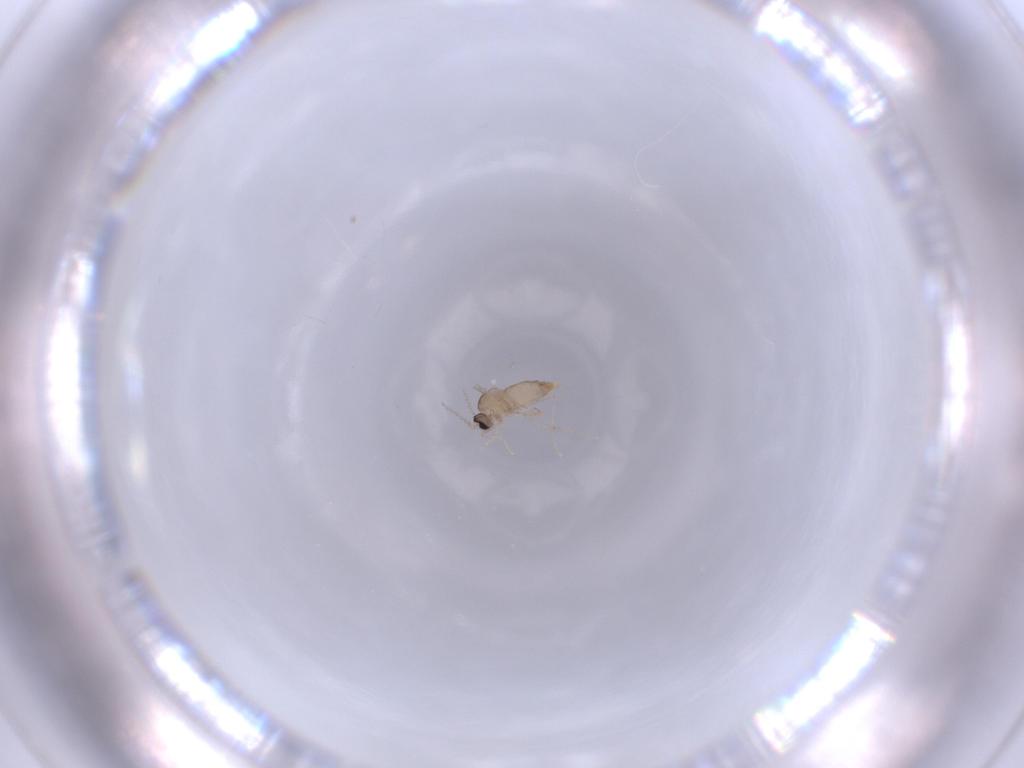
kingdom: Animalia
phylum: Arthropoda
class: Insecta
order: Diptera
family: Cecidomyiidae
